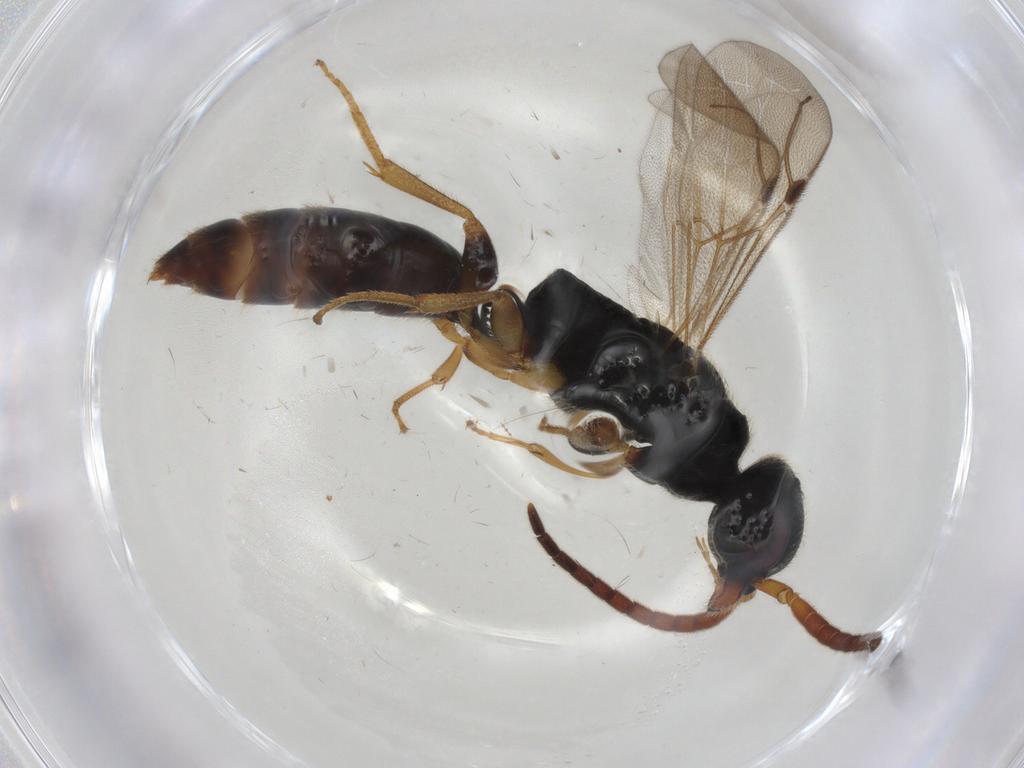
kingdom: Animalia
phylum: Arthropoda
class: Insecta
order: Hymenoptera
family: Bethylidae
